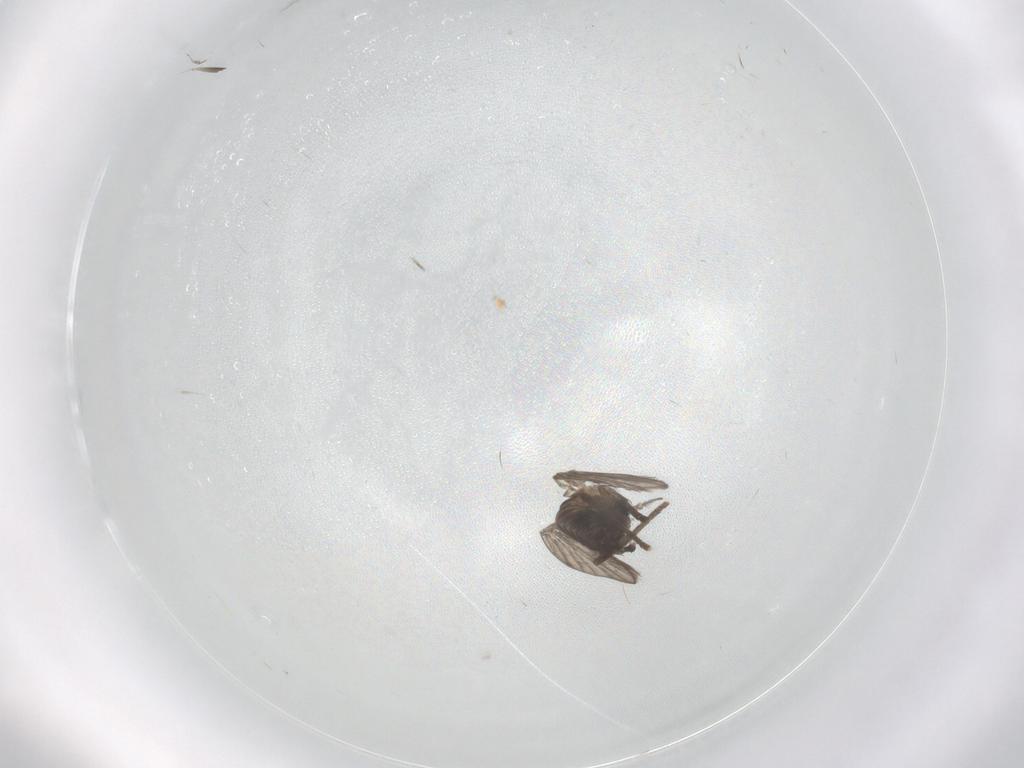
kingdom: Animalia
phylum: Arthropoda
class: Insecta
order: Diptera
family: Psychodidae
